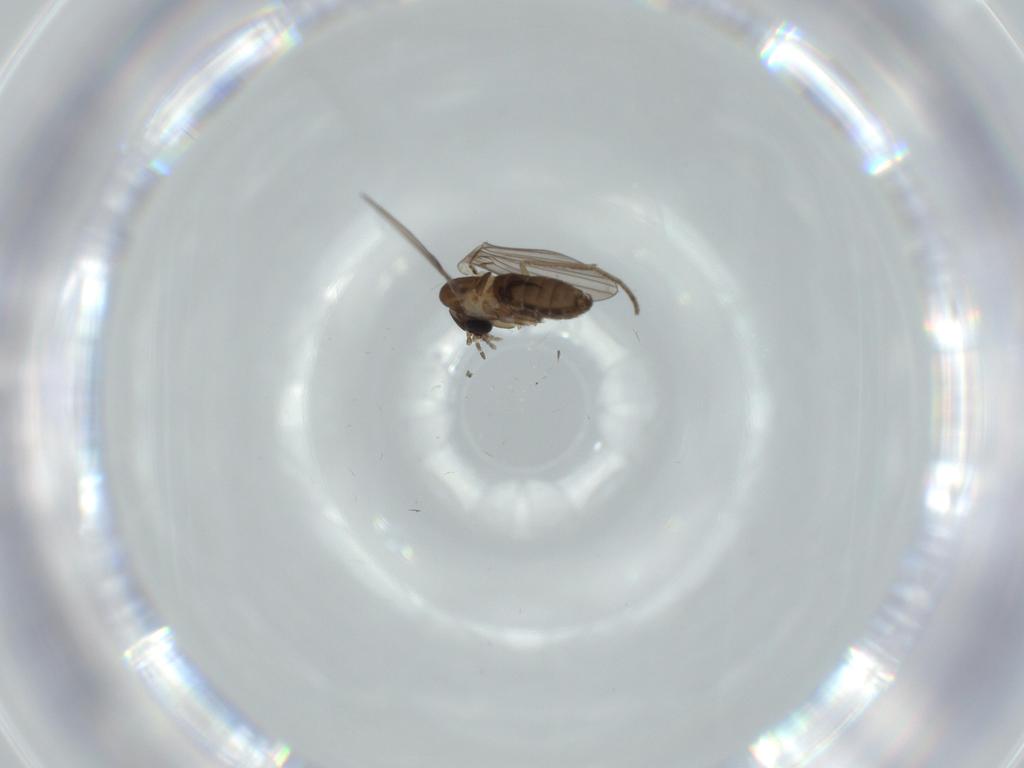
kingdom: Animalia
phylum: Arthropoda
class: Insecta
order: Diptera
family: Psychodidae
